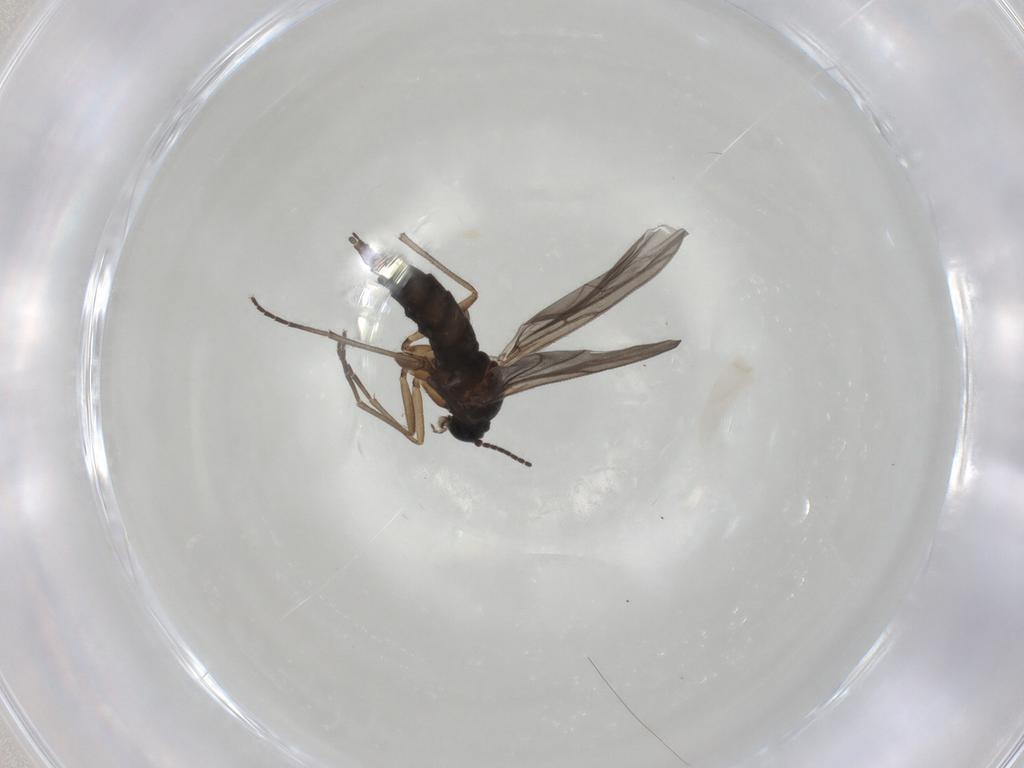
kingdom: Animalia
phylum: Arthropoda
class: Insecta
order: Diptera
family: Sciaridae
